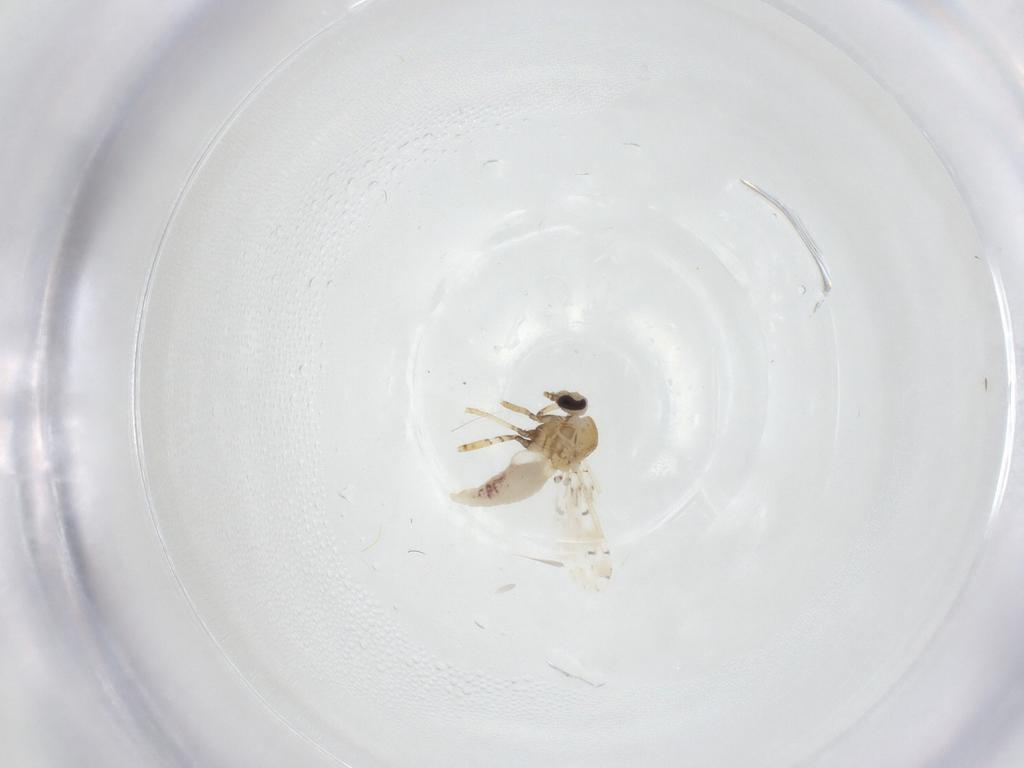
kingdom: Animalia
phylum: Arthropoda
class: Insecta
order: Diptera
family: Ceratopogonidae
